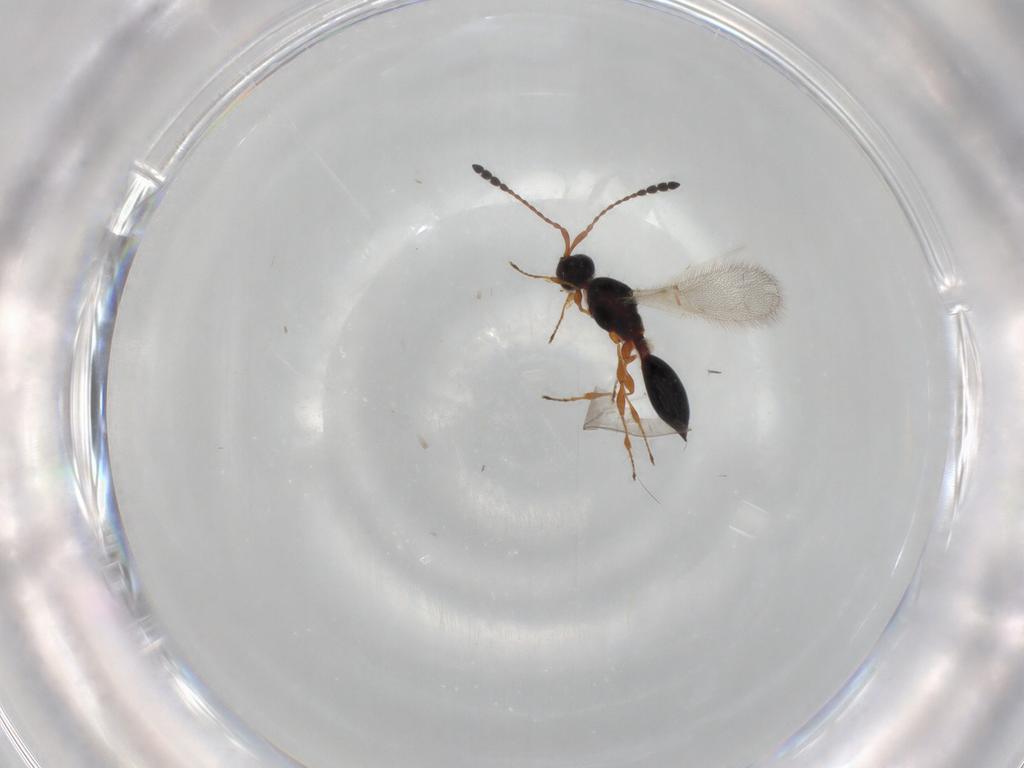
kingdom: Animalia
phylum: Arthropoda
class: Insecta
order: Hymenoptera
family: Diapriidae
